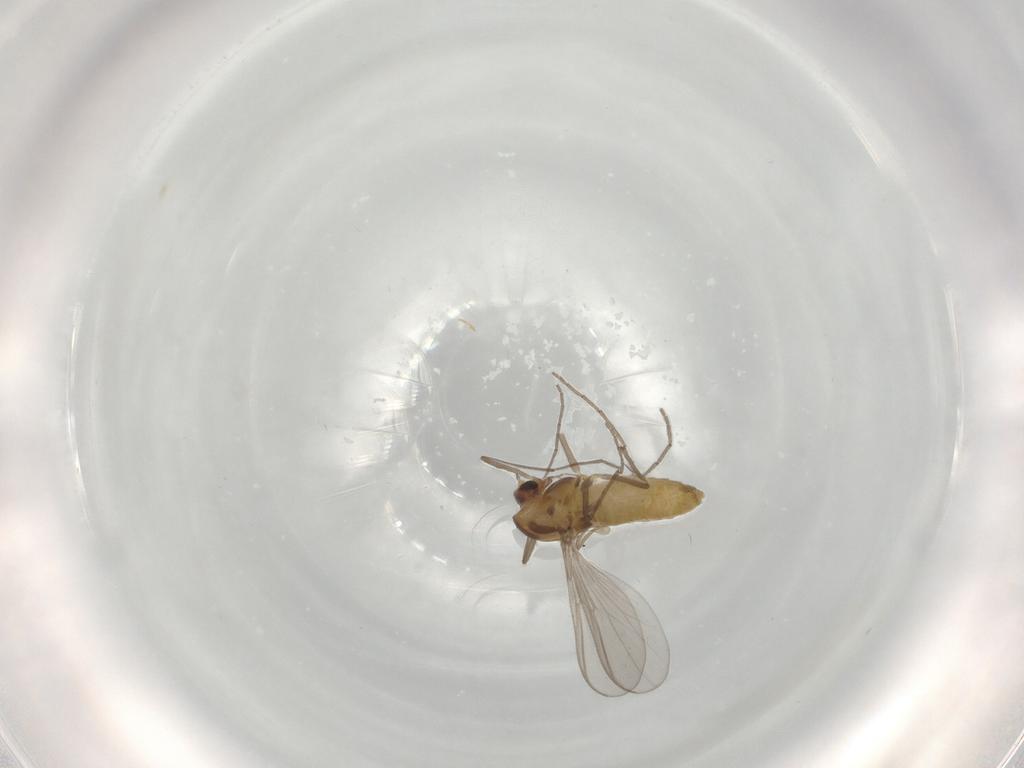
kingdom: Animalia
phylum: Arthropoda
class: Insecta
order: Diptera
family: Chironomidae
